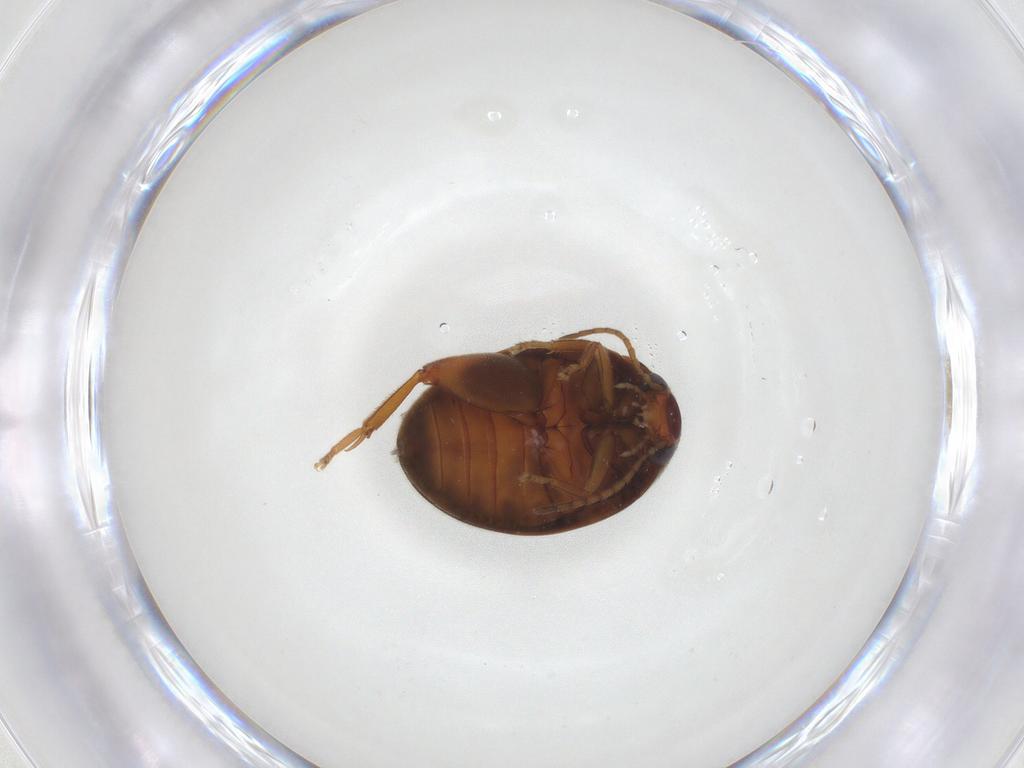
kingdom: Animalia
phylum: Arthropoda
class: Insecta
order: Coleoptera
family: Scirtidae
